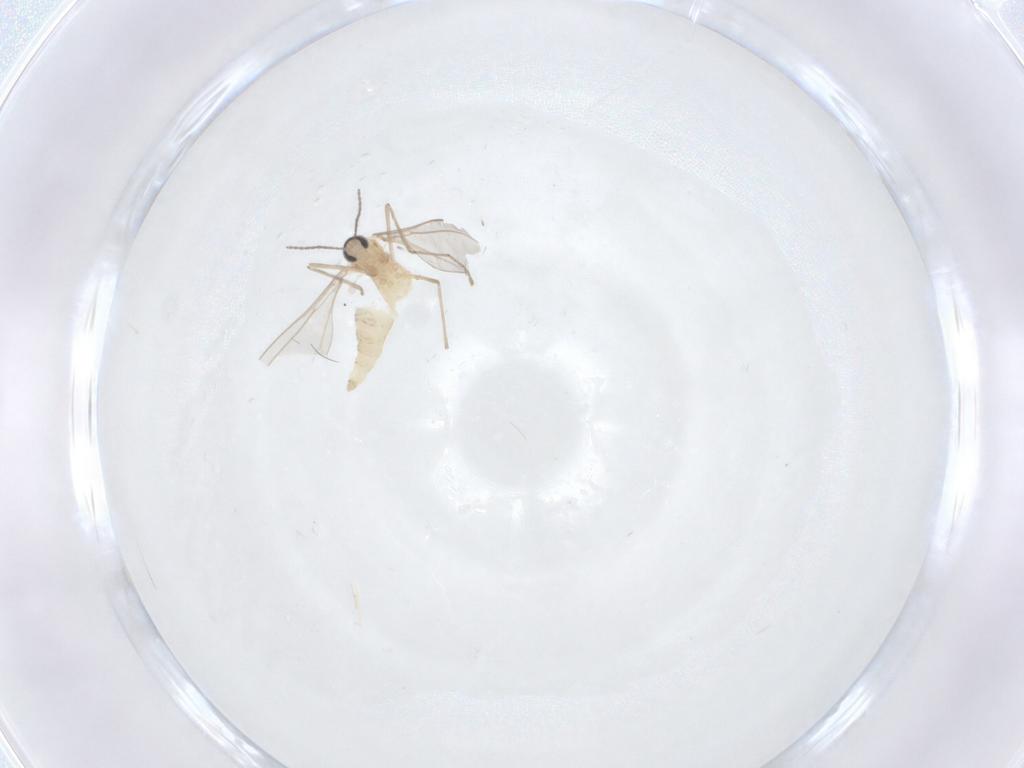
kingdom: Animalia
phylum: Arthropoda
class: Insecta
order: Diptera
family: Cecidomyiidae
